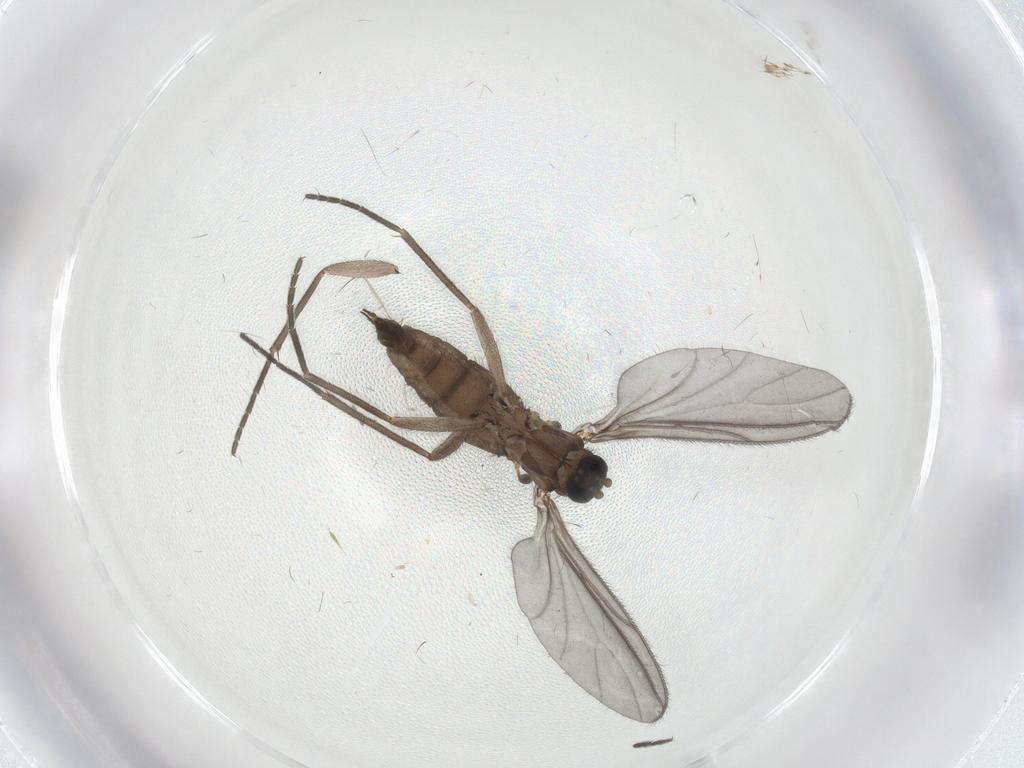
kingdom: Animalia
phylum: Arthropoda
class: Insecta
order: Diptera
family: Sciaridae
